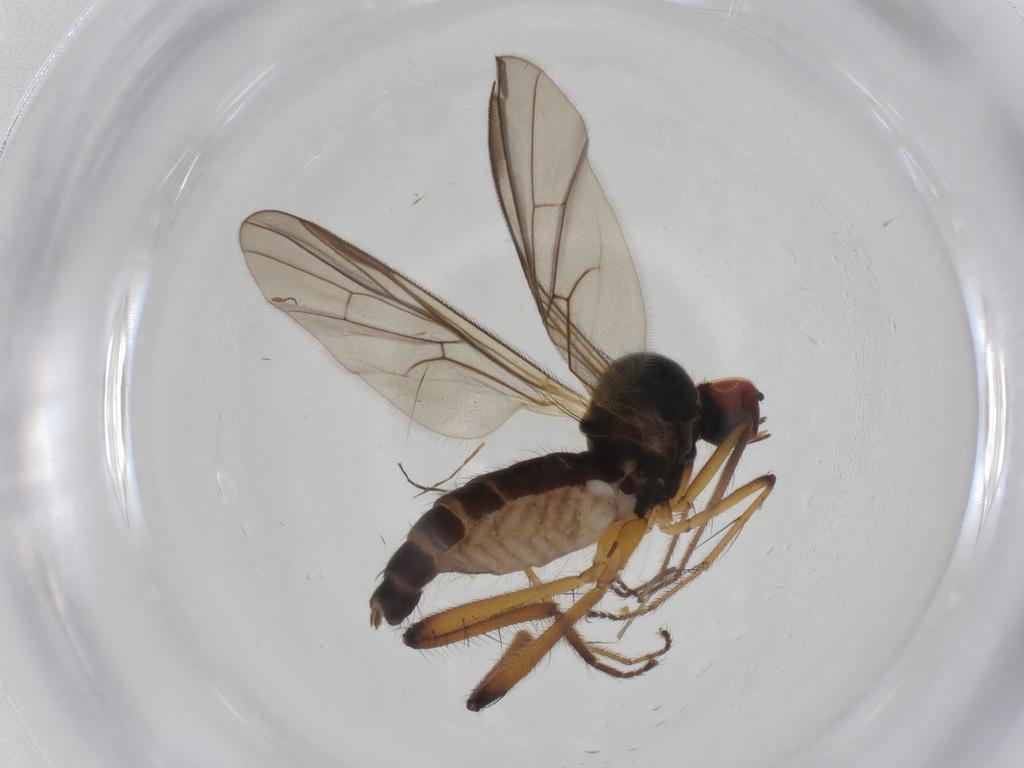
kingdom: Animalia
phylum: Arthropoda
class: Insecta
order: Diptera
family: Hybotidae
